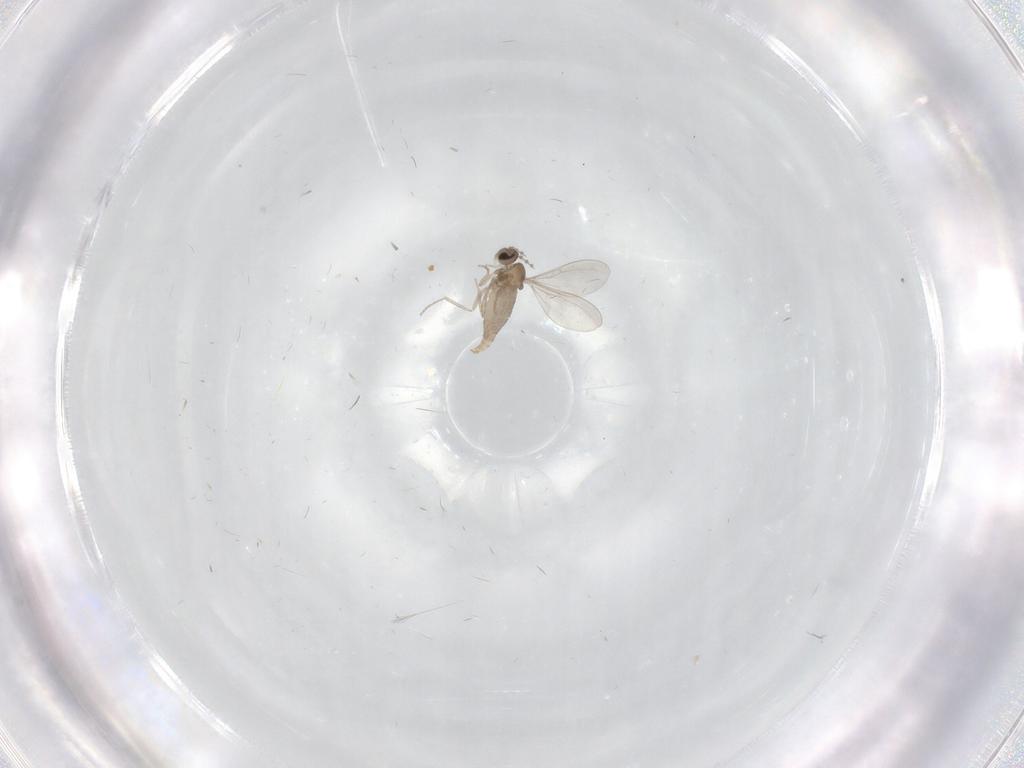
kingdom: Animalia
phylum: Arthropoda
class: Insecta
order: Diptera
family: Cecidomyiidae
